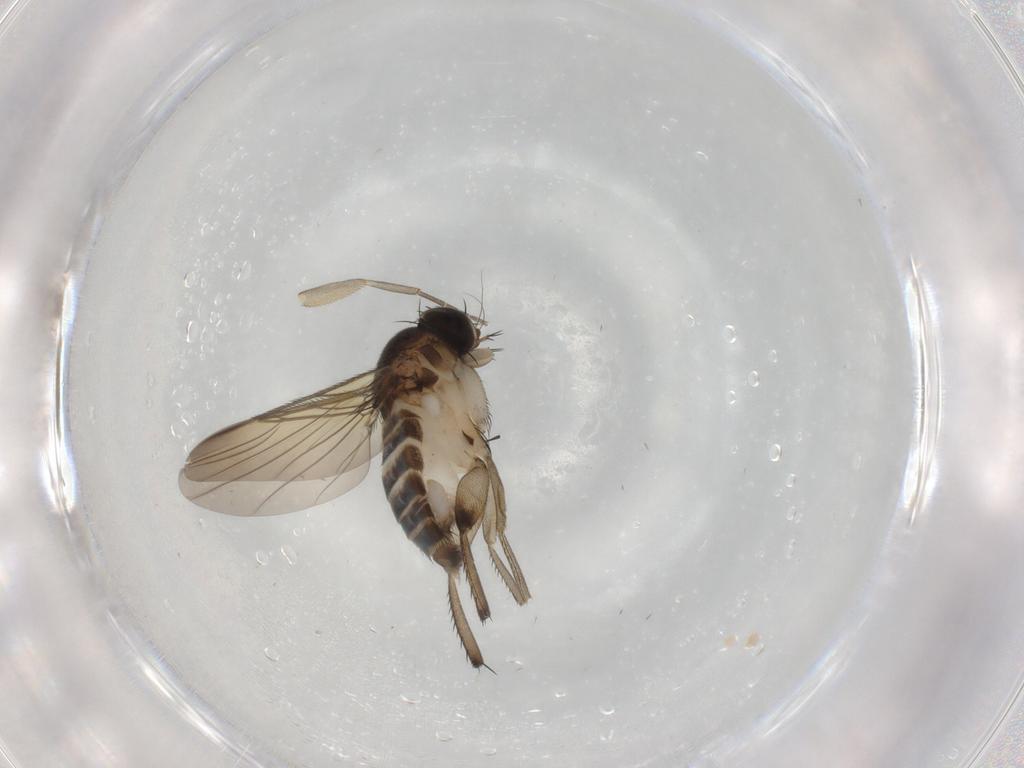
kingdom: Animalia
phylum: Arthropoda
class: Insecta
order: Diptera
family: Phoridae
